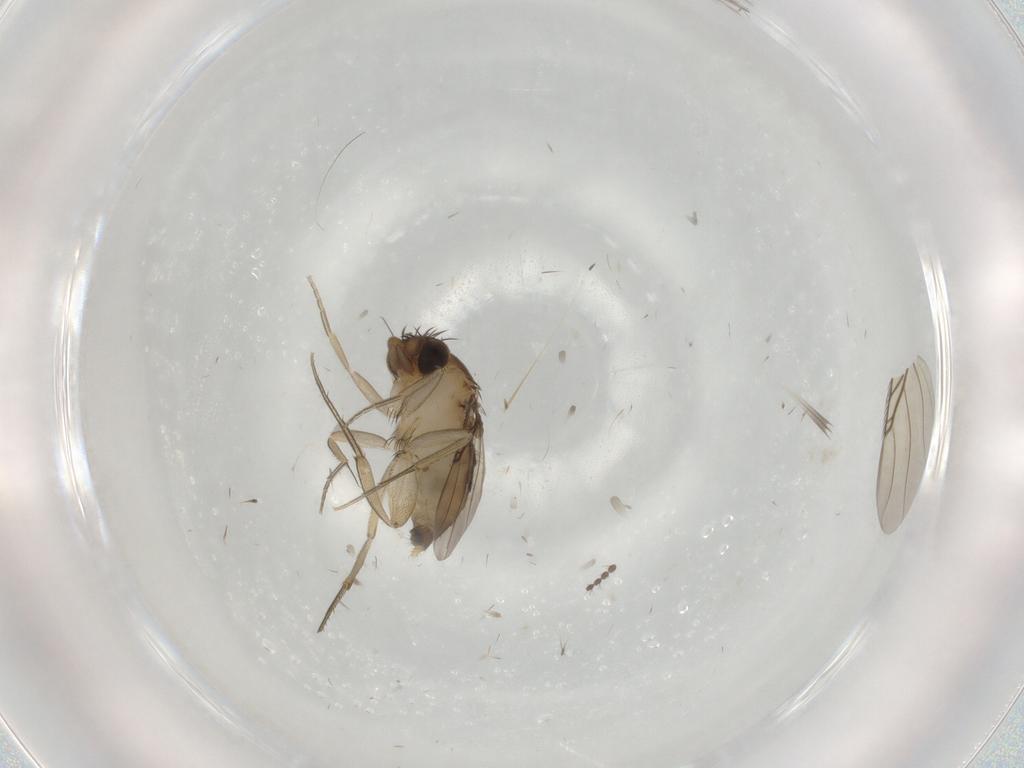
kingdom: Animalia
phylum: Arthropoda
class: Insecta
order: Diptera
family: Phoridae
